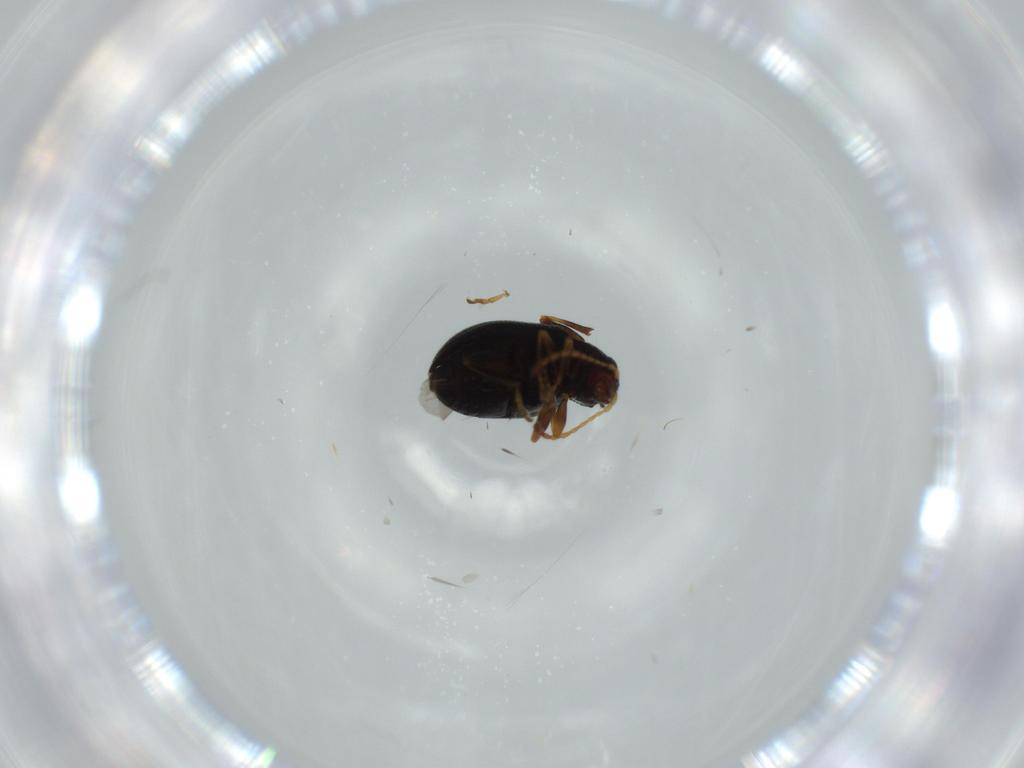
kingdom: Animalia
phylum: Arthropoda
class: Insecta
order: Coleoptera
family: Chrysomelidae
